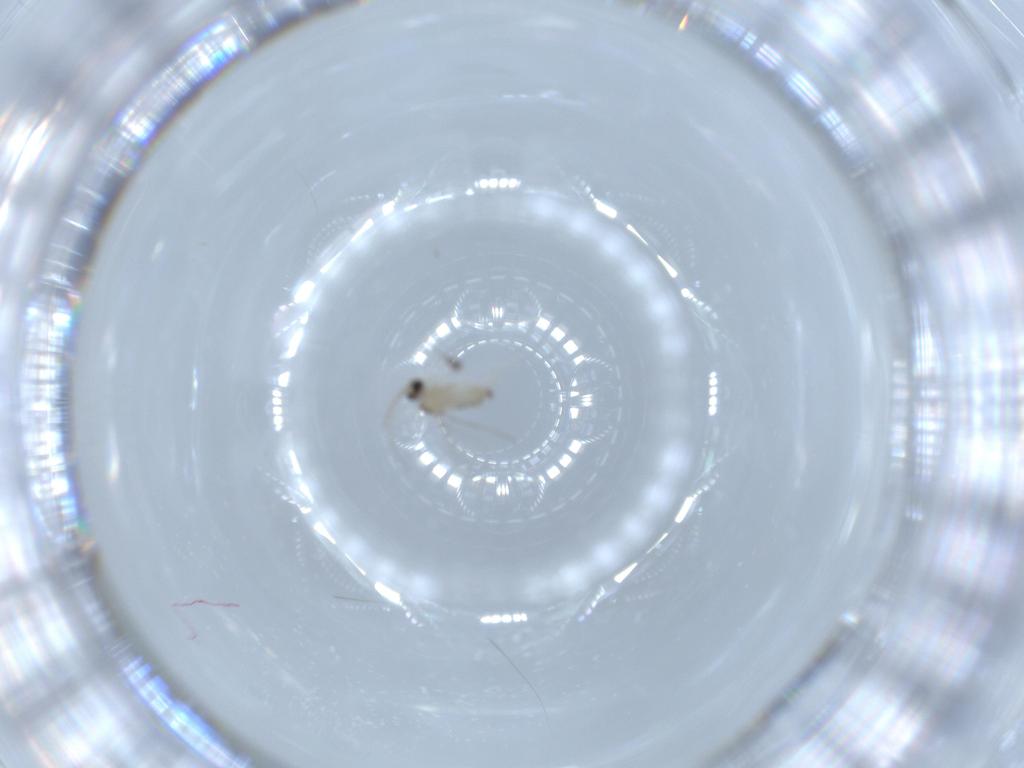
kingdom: Animalia
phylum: Arthropoda
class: Insecta
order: Diptera
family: Cecidomyiidae
